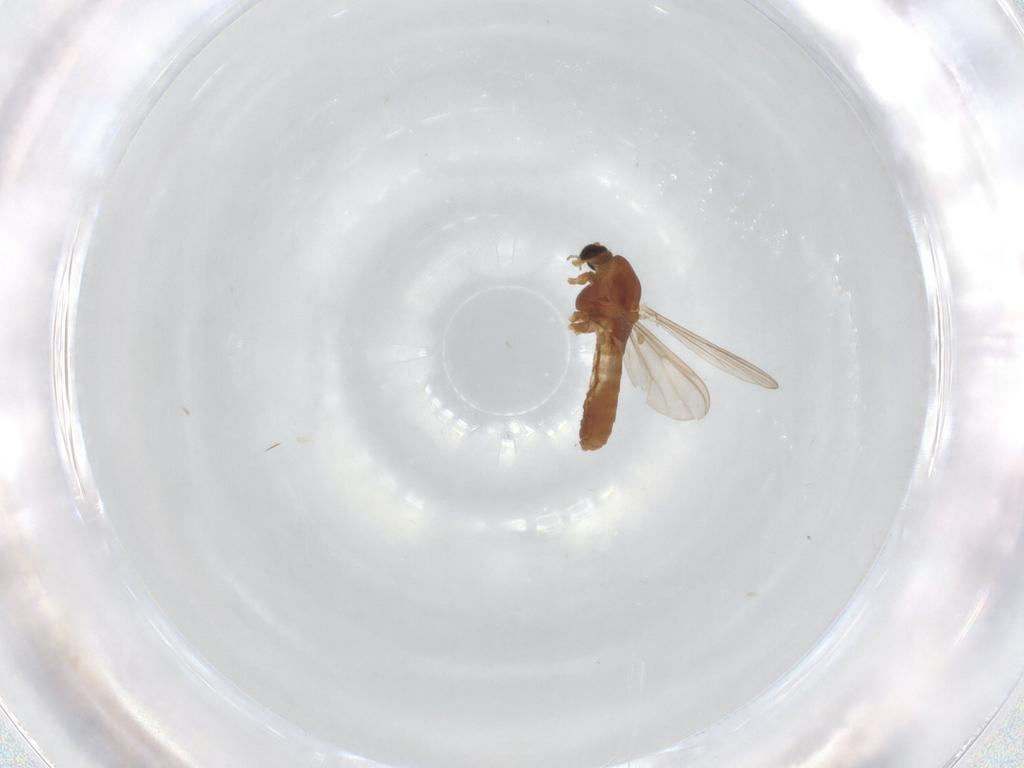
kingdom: Animalia
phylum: Arthropoda
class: Insecta
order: Diptera
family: Chironomidae
